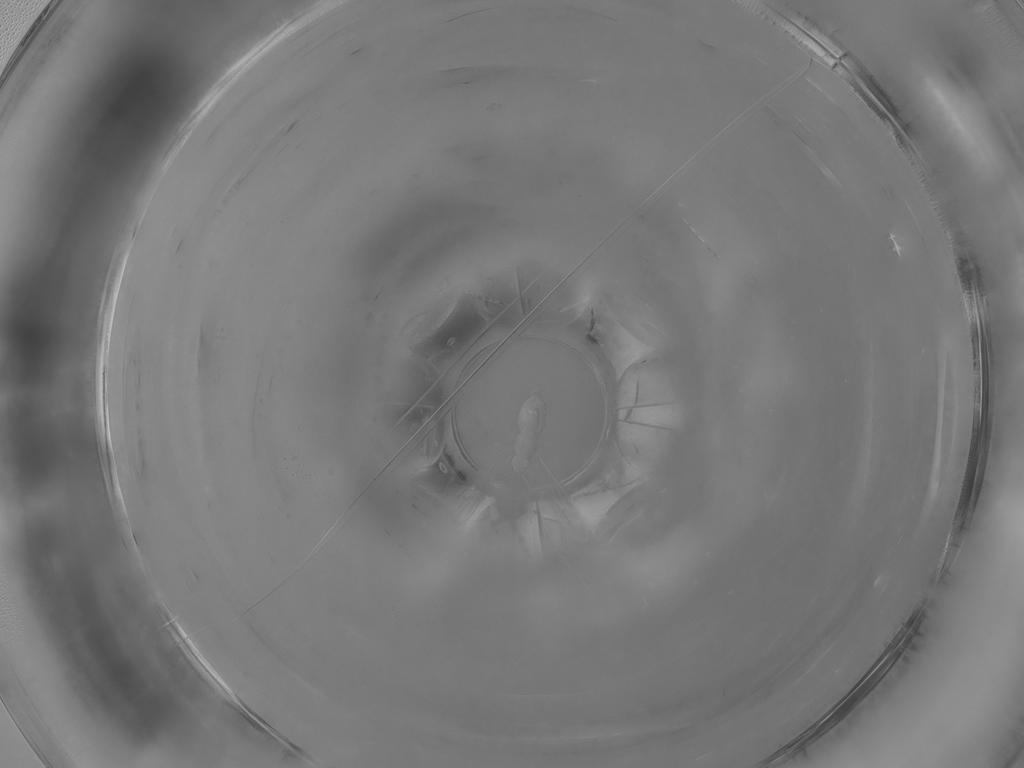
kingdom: Animalia
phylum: Arthropoda
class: Insecta
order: Diptera
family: Cecidomyiidae
